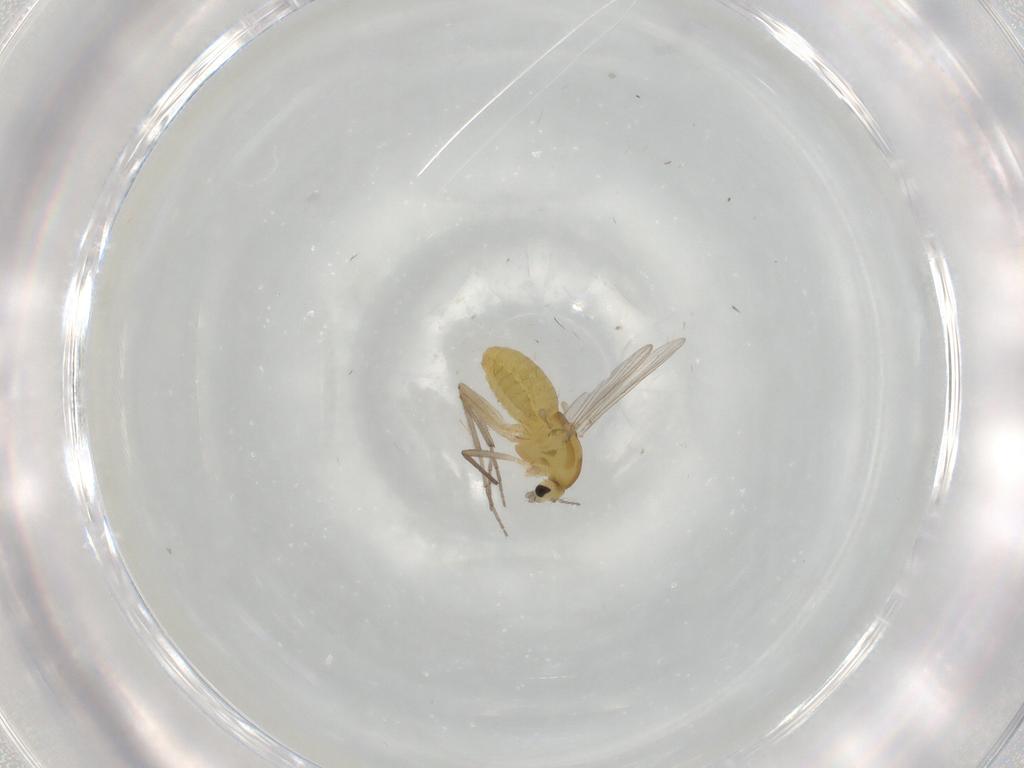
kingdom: Animalia
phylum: Arthropoda
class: Insecta
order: Diptera
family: Chironomidae
